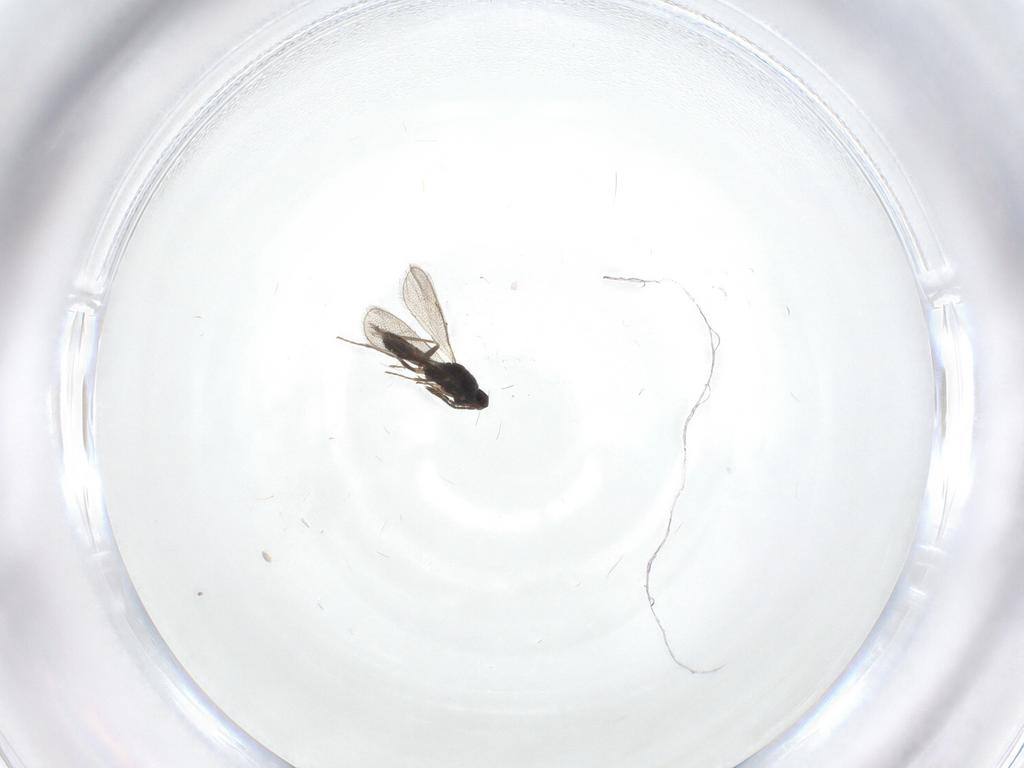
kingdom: Animalia
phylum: Arthropoda
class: Insecta
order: Hymenoptera
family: Eulophidae
